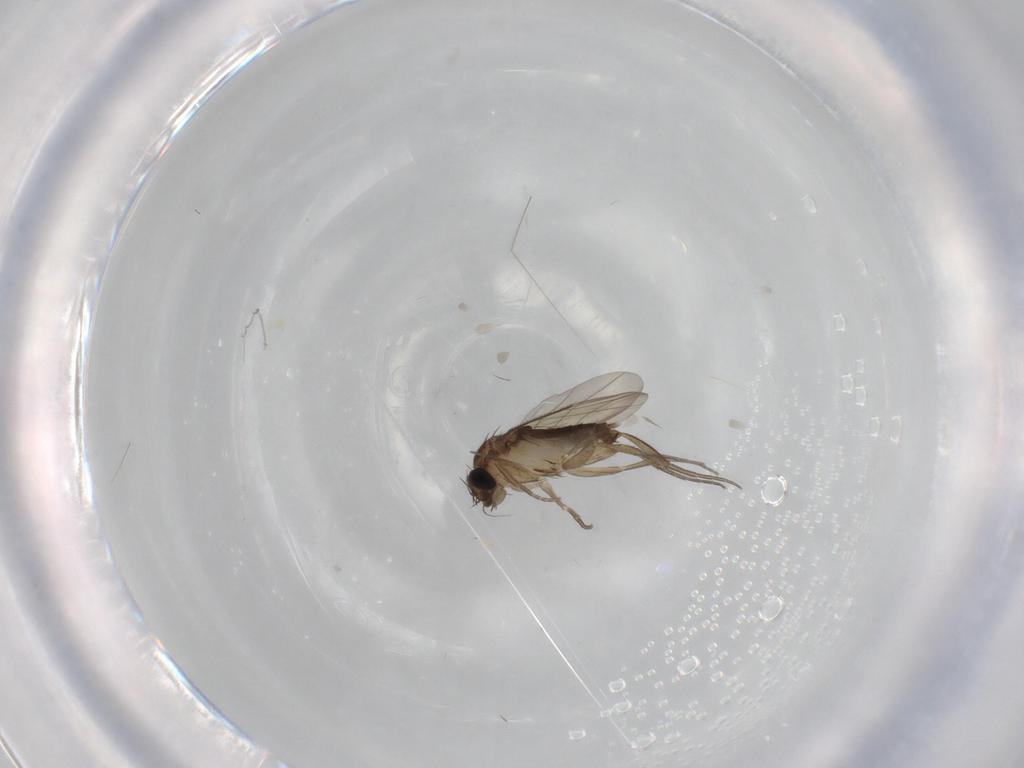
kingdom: Animalia
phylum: Arthropoda
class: Insecta
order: Diptera
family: Phoridae
